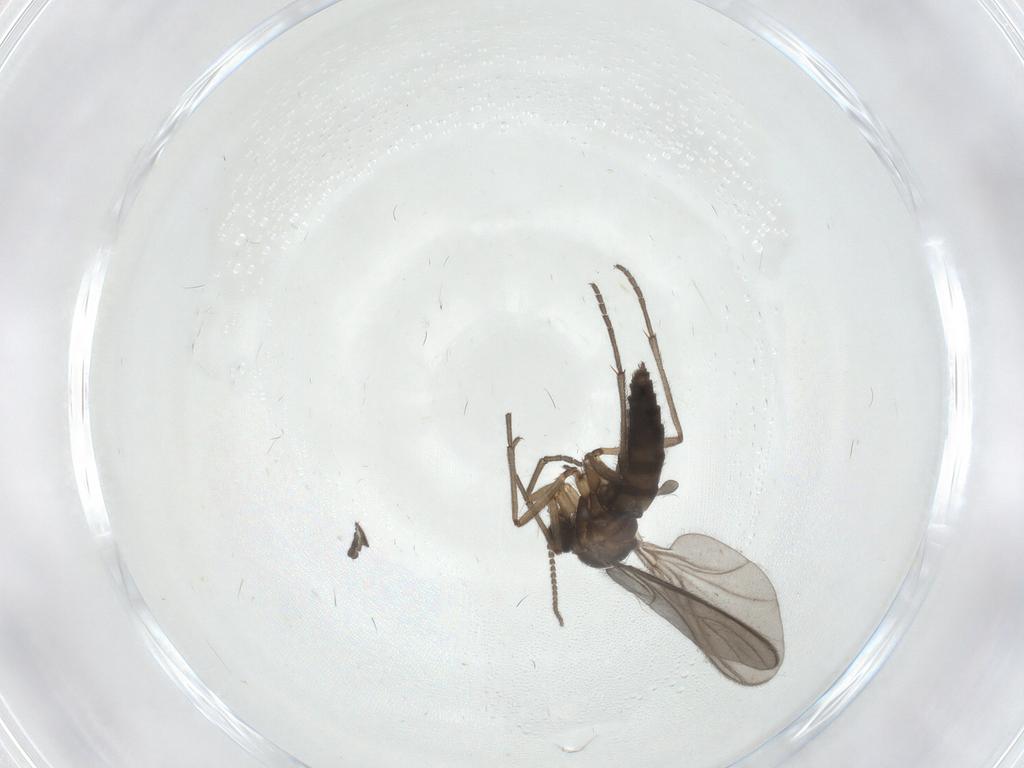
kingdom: Animalia
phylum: Arthropoda
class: Insecta
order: Diptera
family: Sciaridae
